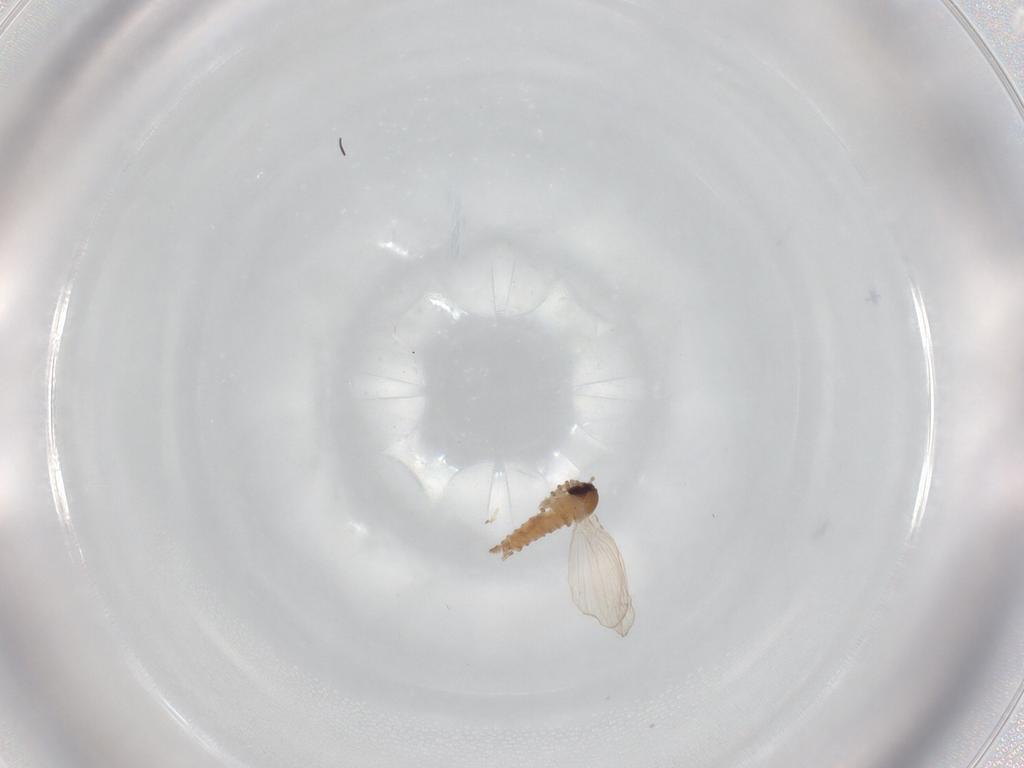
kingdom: Animalia
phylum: Arthropoda
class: Insecta
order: Diptera
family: Psychodidae
